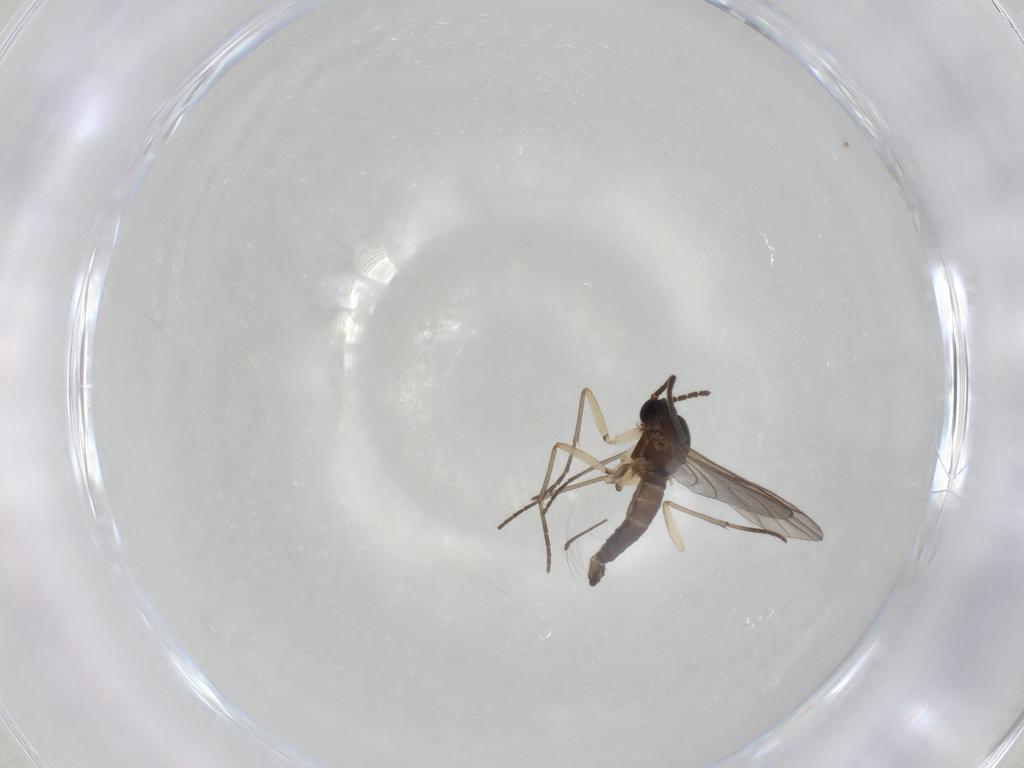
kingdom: Animalia
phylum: Arthropoda
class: Insecta
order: Diptera
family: Sciaridae
